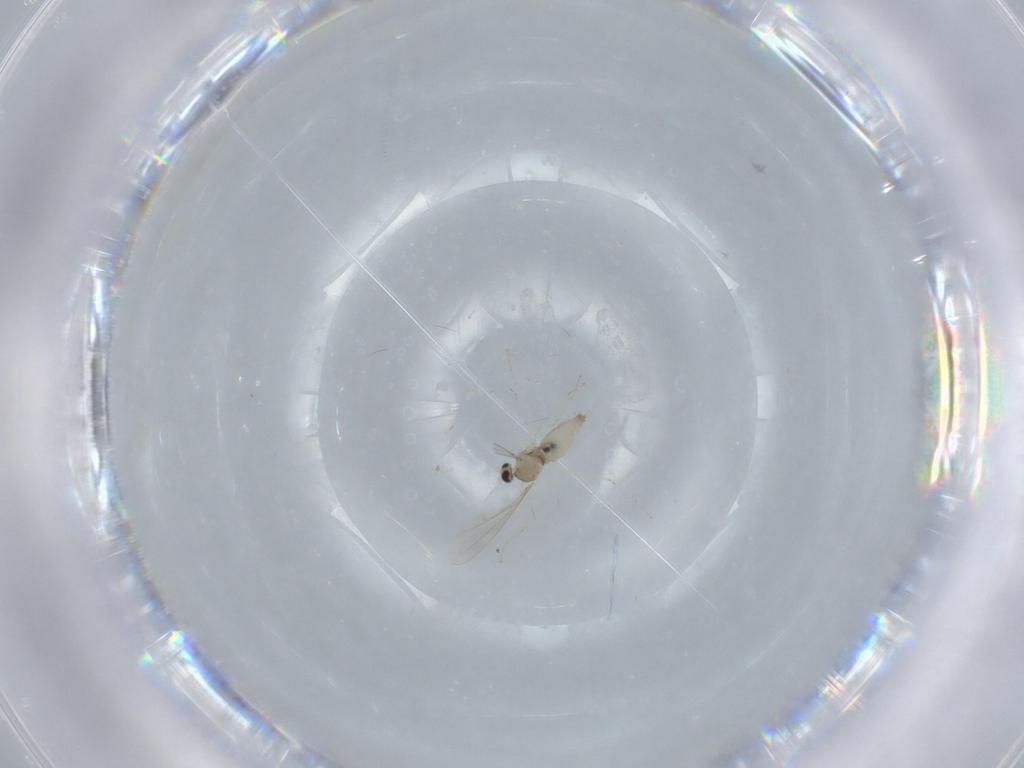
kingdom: Animalia
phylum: Arthropoda
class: Insecta
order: Diptera
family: Cecidomyiidae
